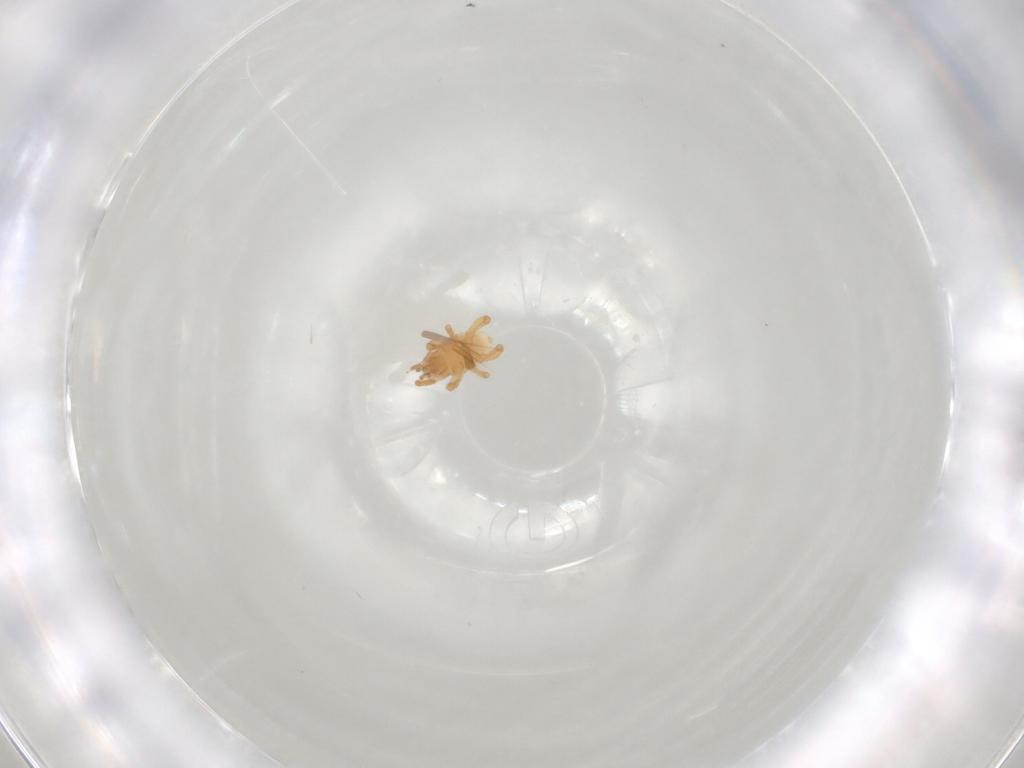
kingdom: Animalia
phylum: Arthropoda
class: Arachnida
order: Mesostigmata
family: Parasitidae
